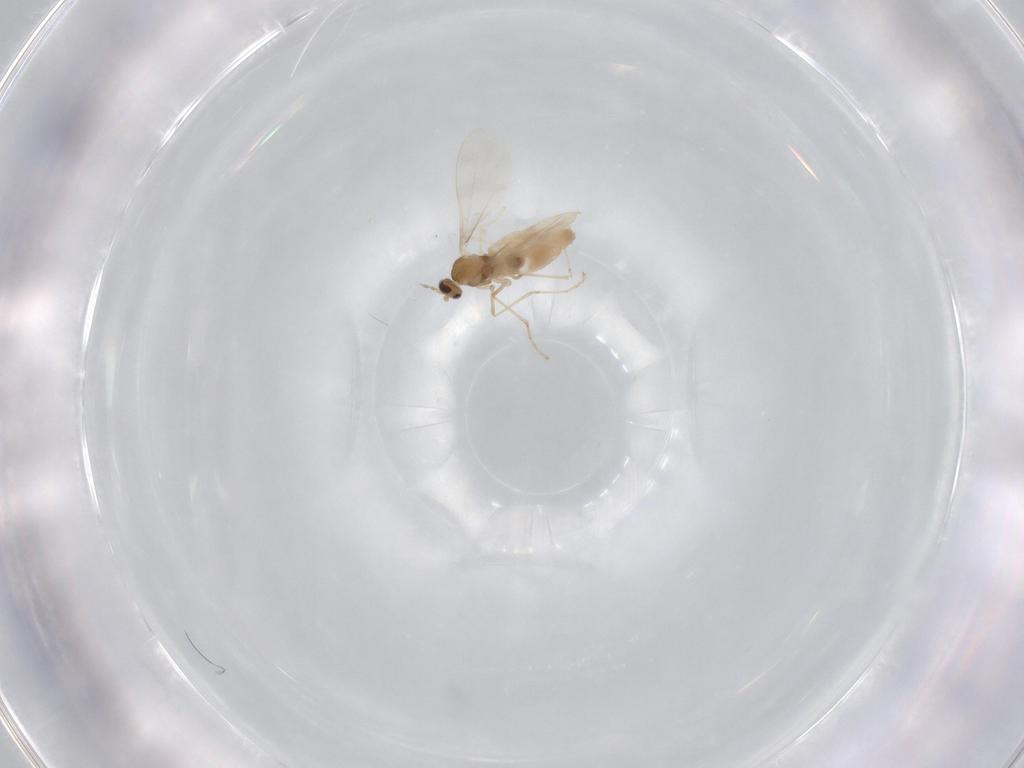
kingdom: Animalia
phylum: Arthropoda
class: Insecta
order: Diptera
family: Cecidomyiidae
